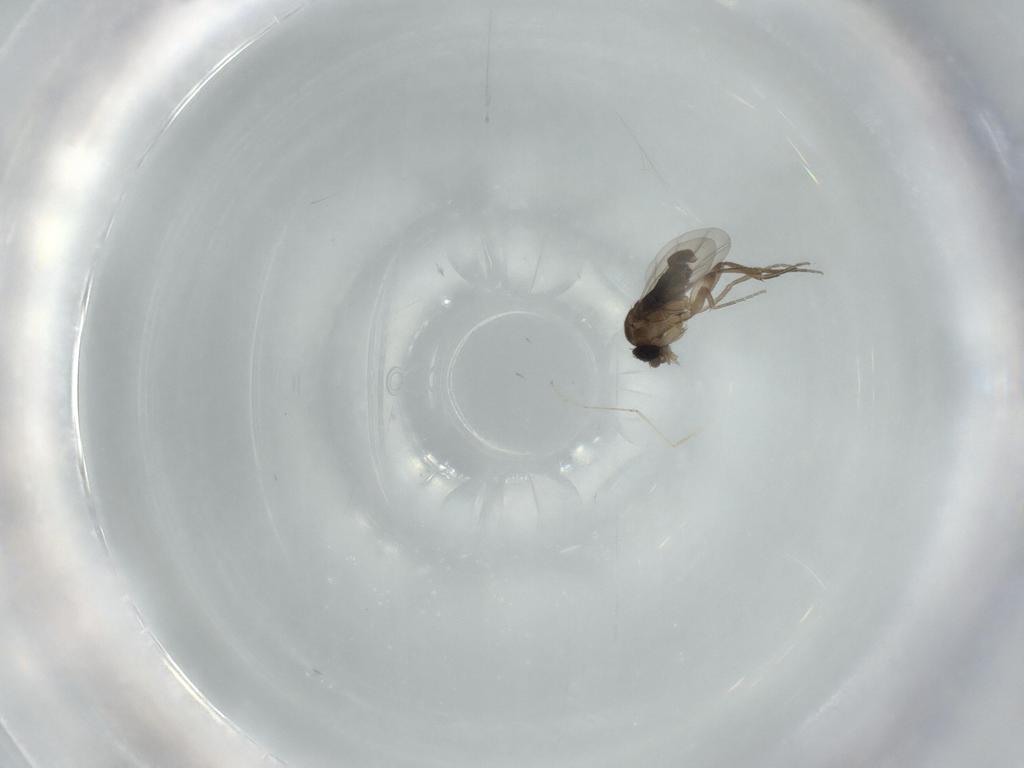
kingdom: Animalia
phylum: Arthropoda
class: Insecta
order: Diptera
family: Phoridae
